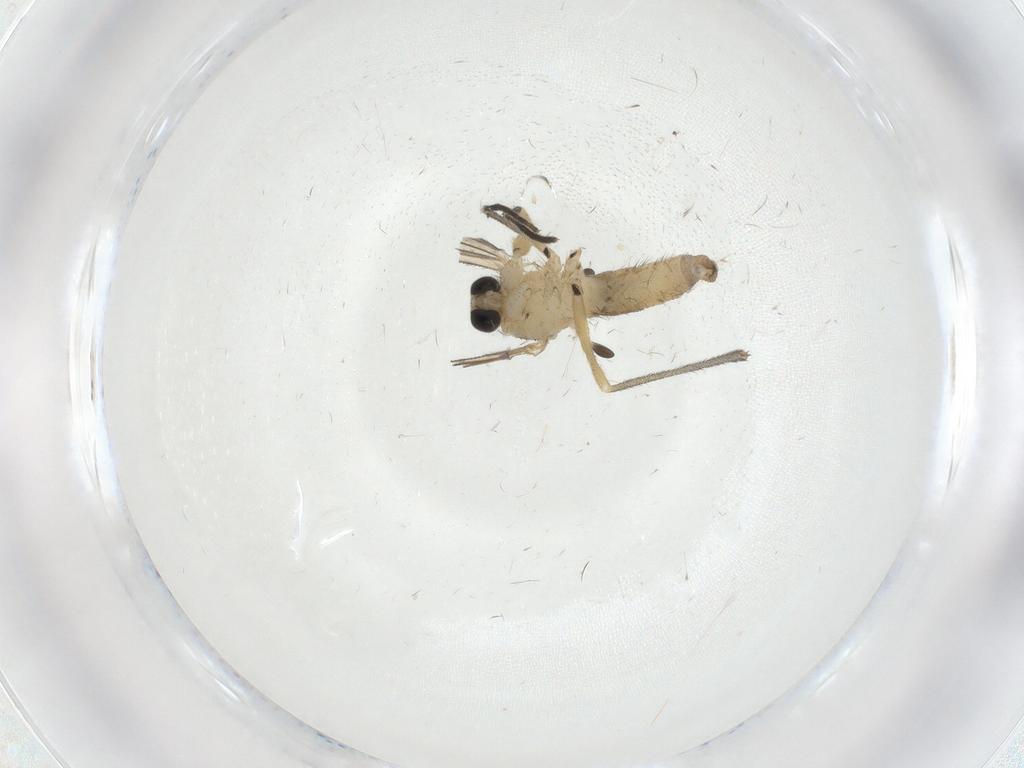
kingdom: Animalia
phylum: Arthropoda
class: Insecta
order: Diptera
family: Sciaridae
